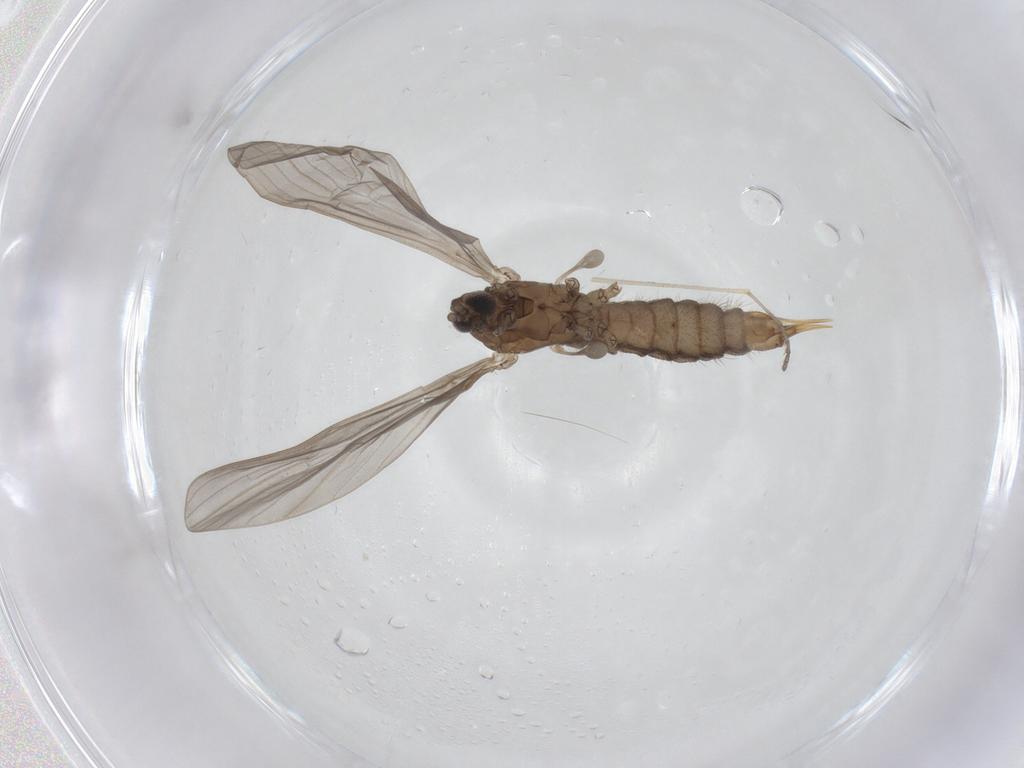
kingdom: Animalia
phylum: Arthropoda
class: Insecta
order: Diptera
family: Limoniidae
